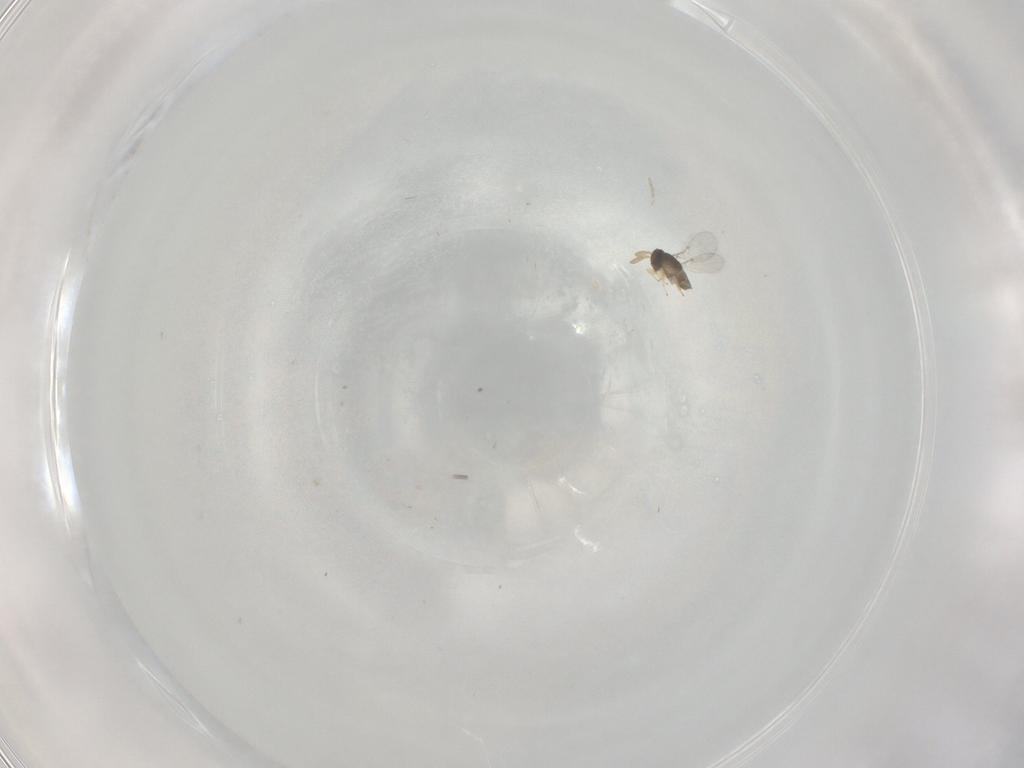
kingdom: Animalia
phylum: Arthropoda
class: Insecta
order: Hymenoptera
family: Encyrtidae
